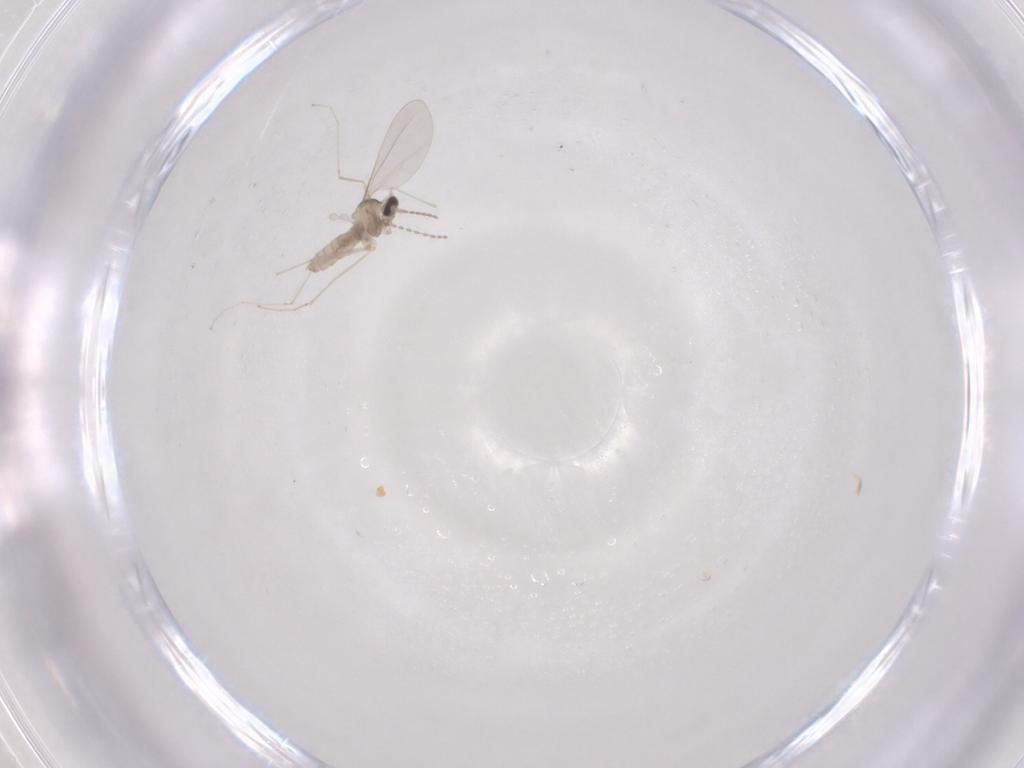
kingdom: Animalia
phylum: Arthropoda
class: Insecta
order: Diptera
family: Cecidomyiidae
